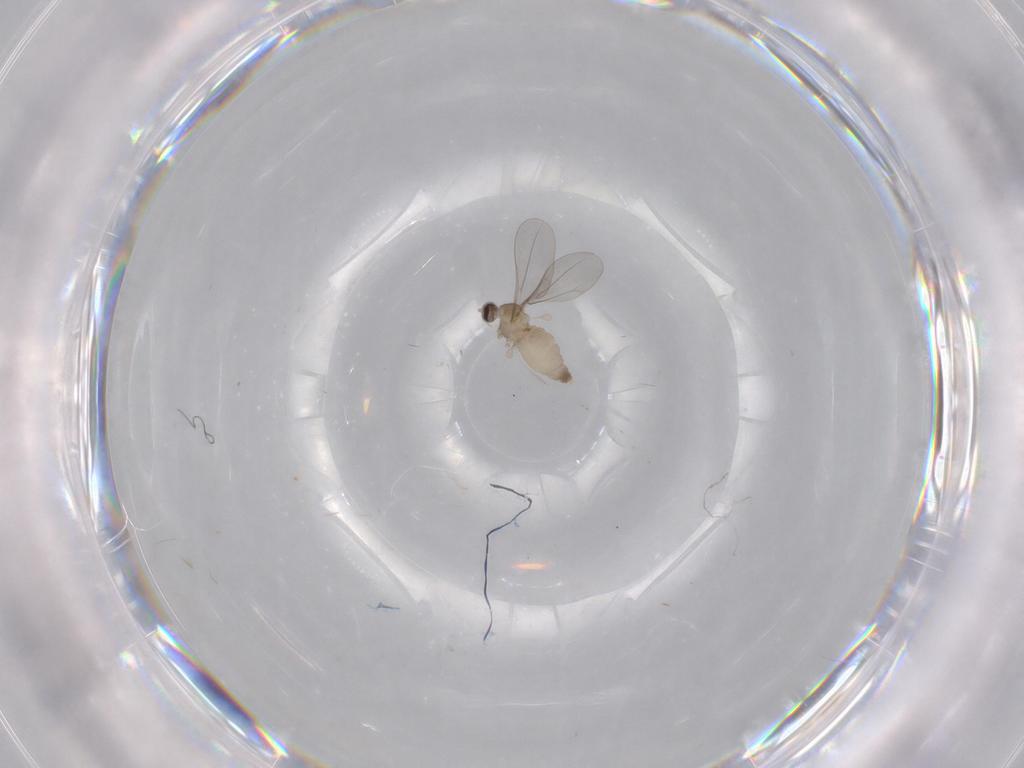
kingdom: Animalia
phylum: Arthropoda
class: Insecta
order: Diptera
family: Cecidomyiidae
